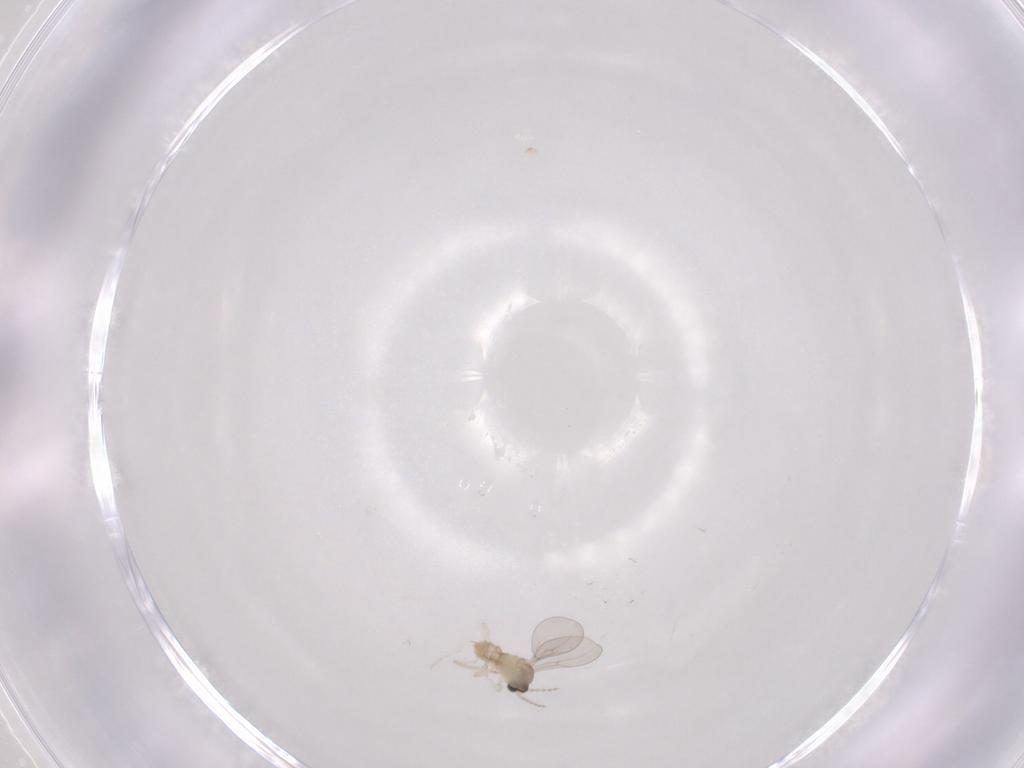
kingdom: Animalia
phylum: Arthropoda
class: Insecta
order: Diptera
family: Cecidomyiidae
